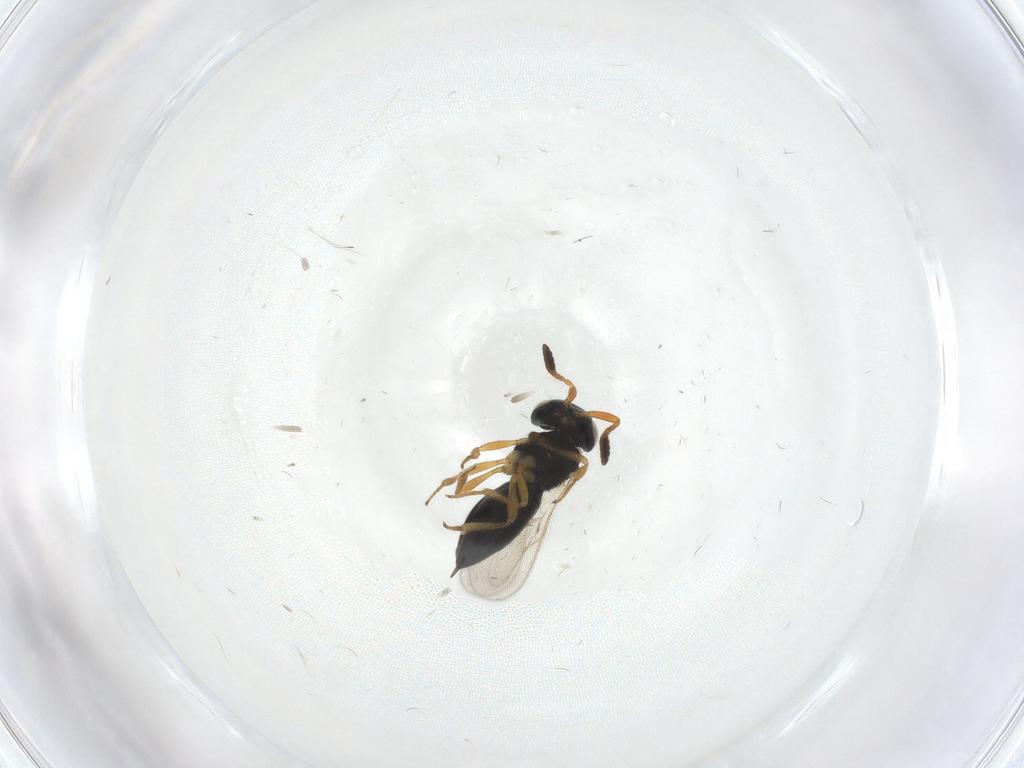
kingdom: Animalia
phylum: Arthropoda
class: Insecta
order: Hymenoptera
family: Scelionidae
